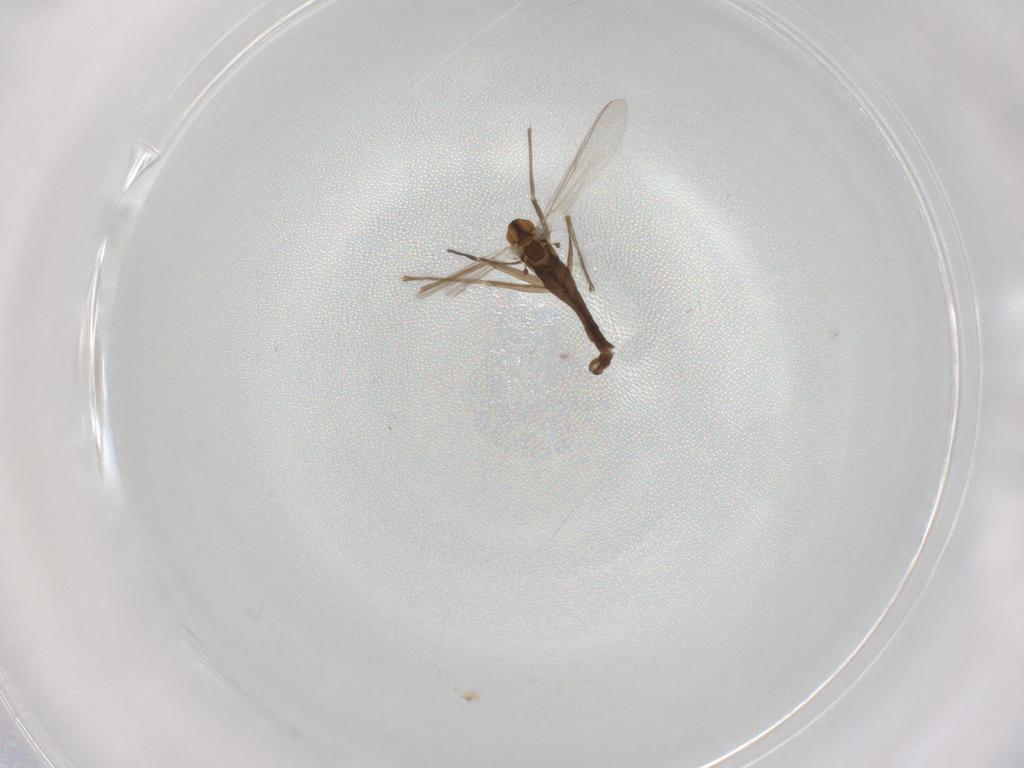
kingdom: Animalia
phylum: Arthropoda
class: Insecta
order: Diptera
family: Chironomidae
